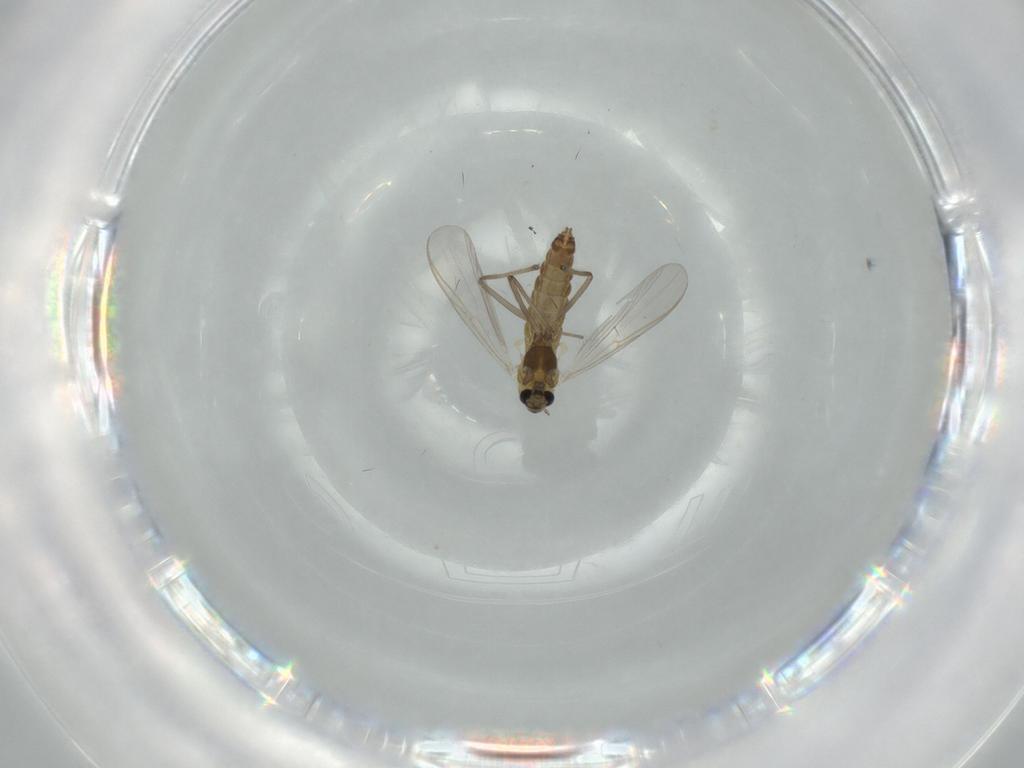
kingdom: Animalia
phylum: Arthropoda
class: Insecta
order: Diptera
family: Chironomidae
